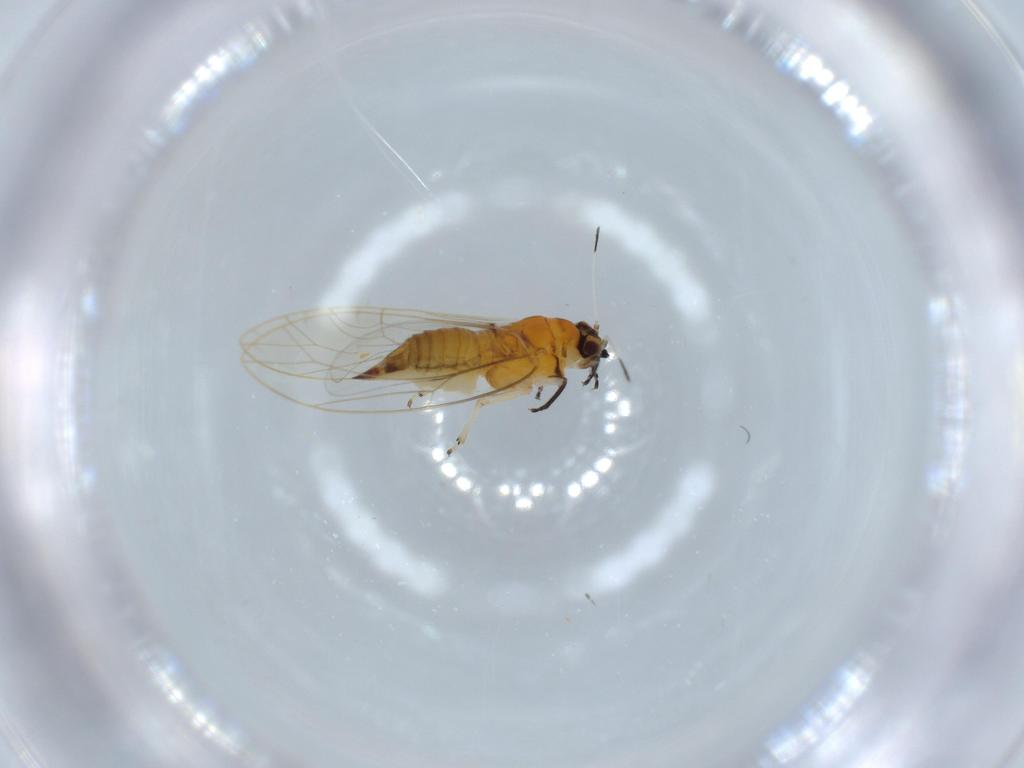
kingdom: Animalia
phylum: Arthropoda
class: Insecta
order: Hemiptera
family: Triozidae
